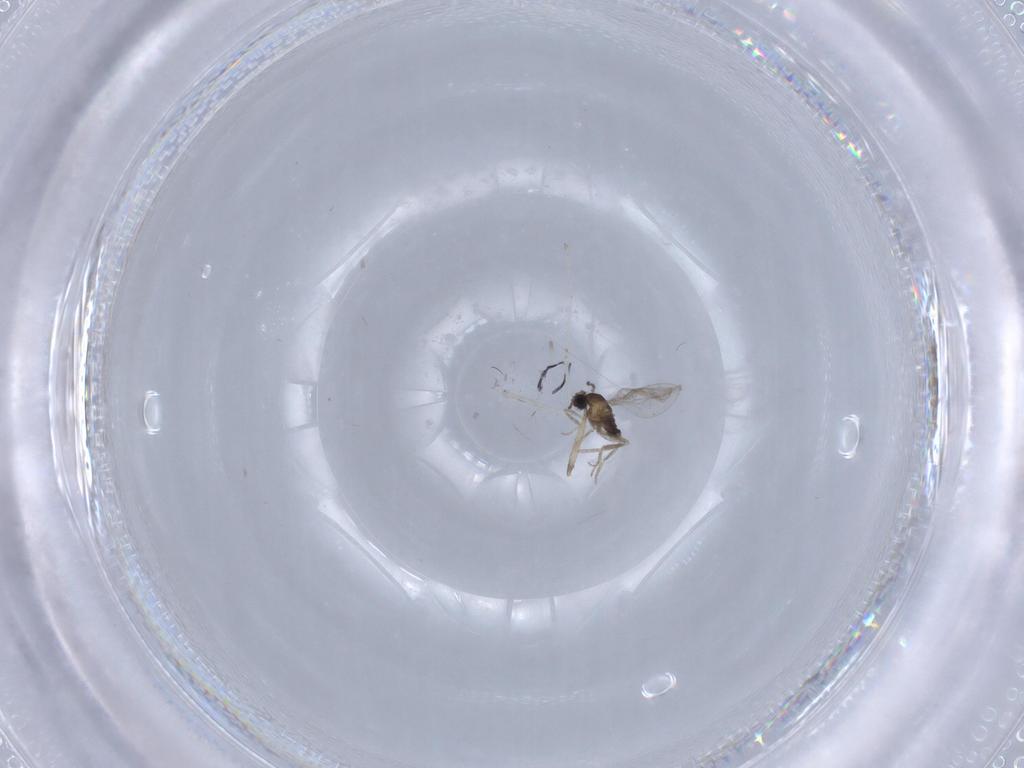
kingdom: Animalia
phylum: Arthropoda
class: Insecta
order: Diptera
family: Cecidomyiidae
